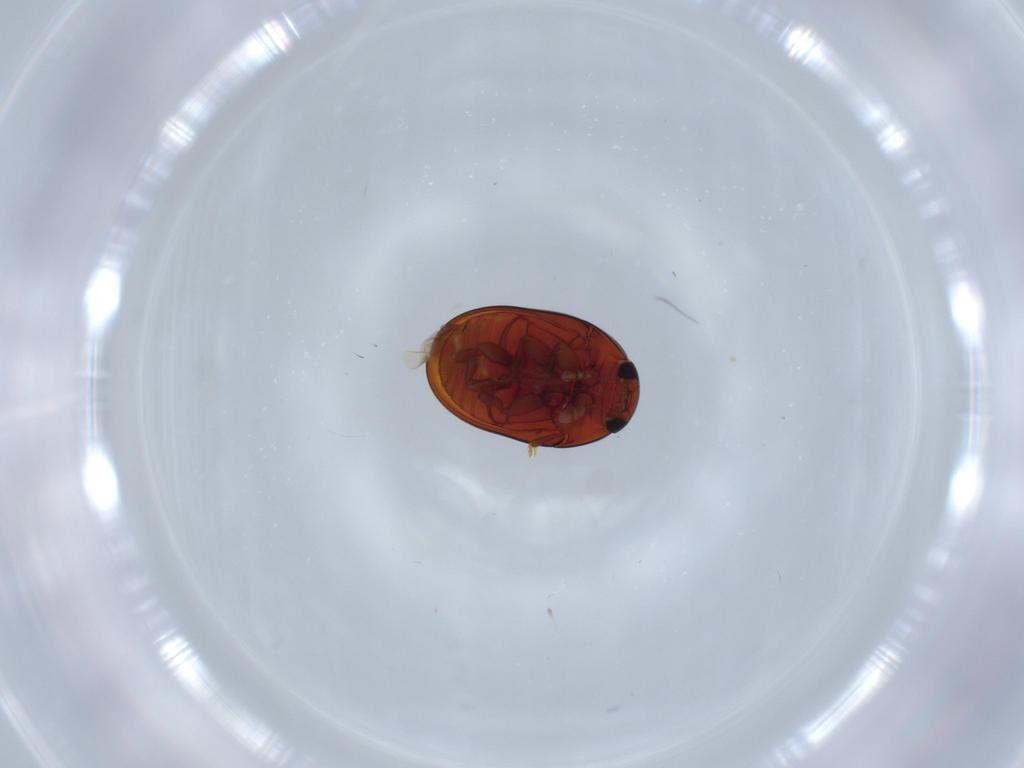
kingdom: Animalia
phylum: Arthropoda
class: Insecta
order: Coleoptera
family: Phalacridae
